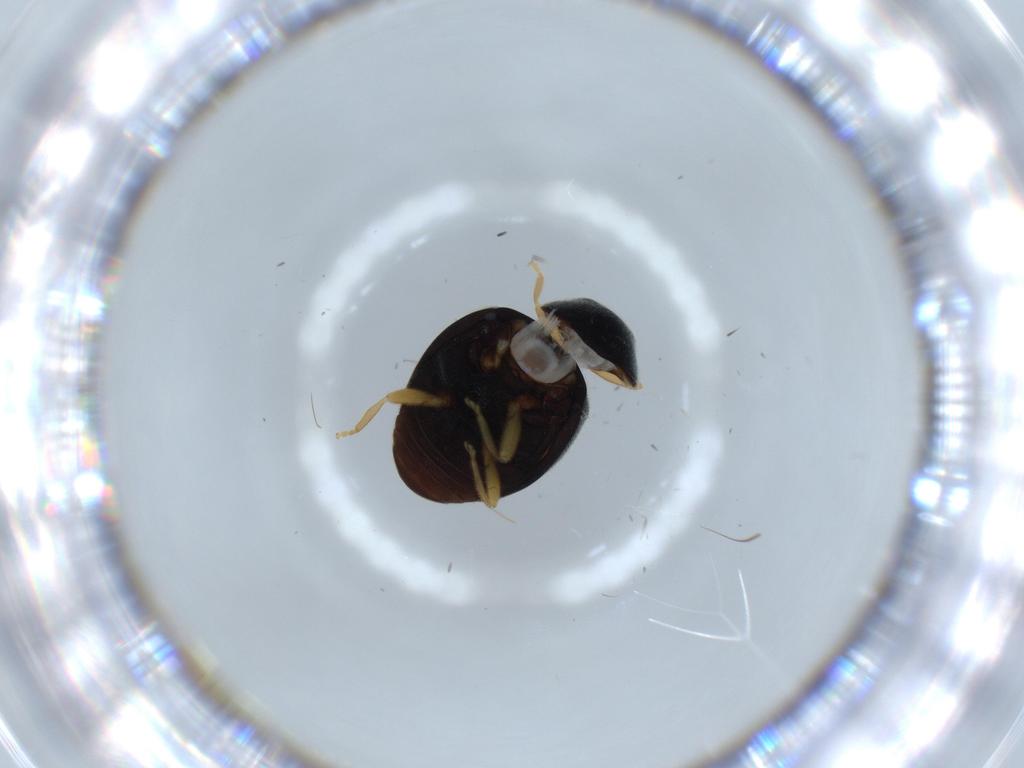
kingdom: Animalia
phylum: Arthropoda
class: Insecta
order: Coleoptera
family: Coccinellidae
